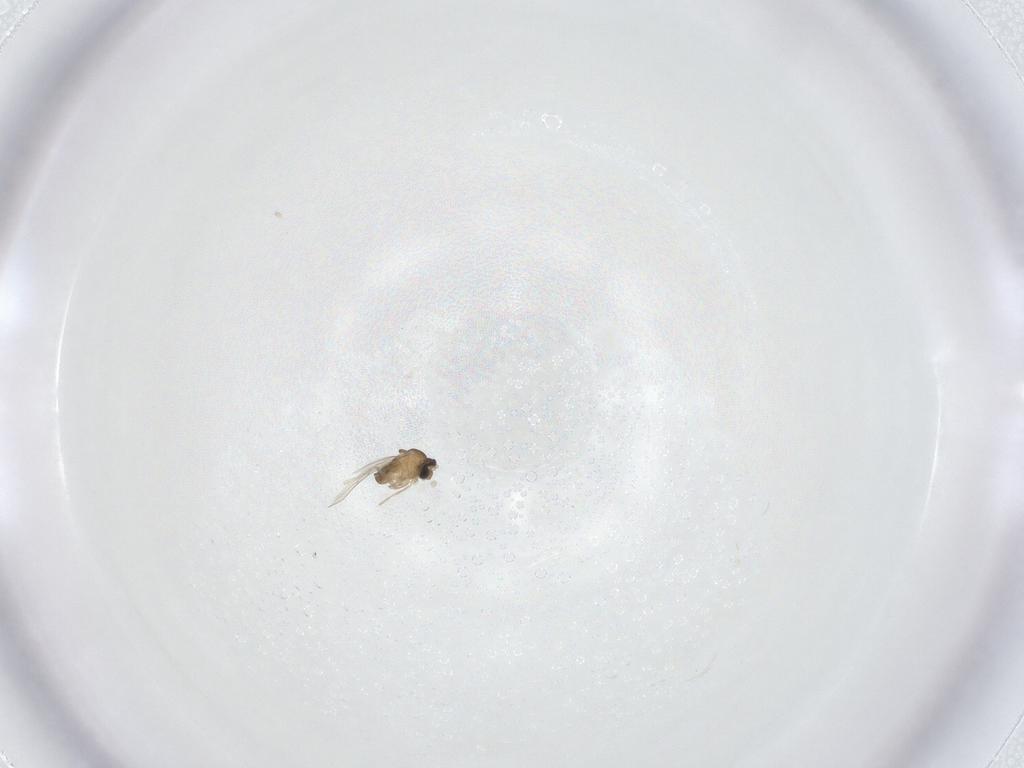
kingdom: Animalia
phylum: Arthropoda
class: Insecta
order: Diptera
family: Cecidomyiidae
